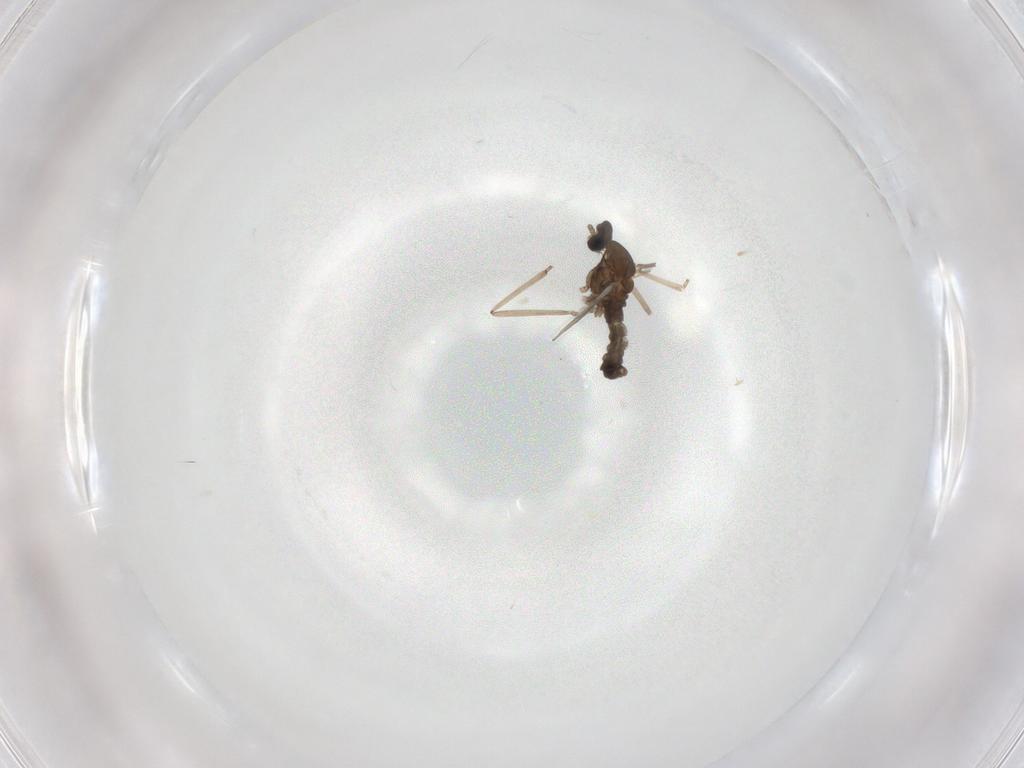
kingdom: Animalia
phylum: Arthropoda
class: Insecta
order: Diptera
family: Cecidomyiidae
